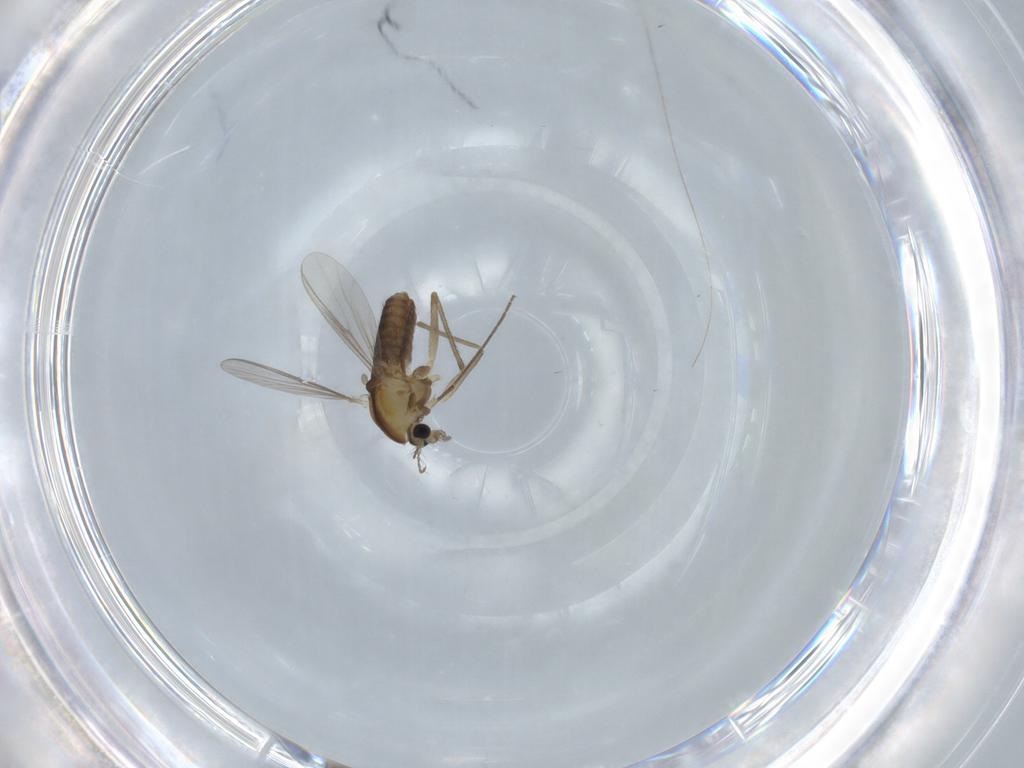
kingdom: Animalia
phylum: Arthropoda
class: Insecta
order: Diptera
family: Chironomidae
